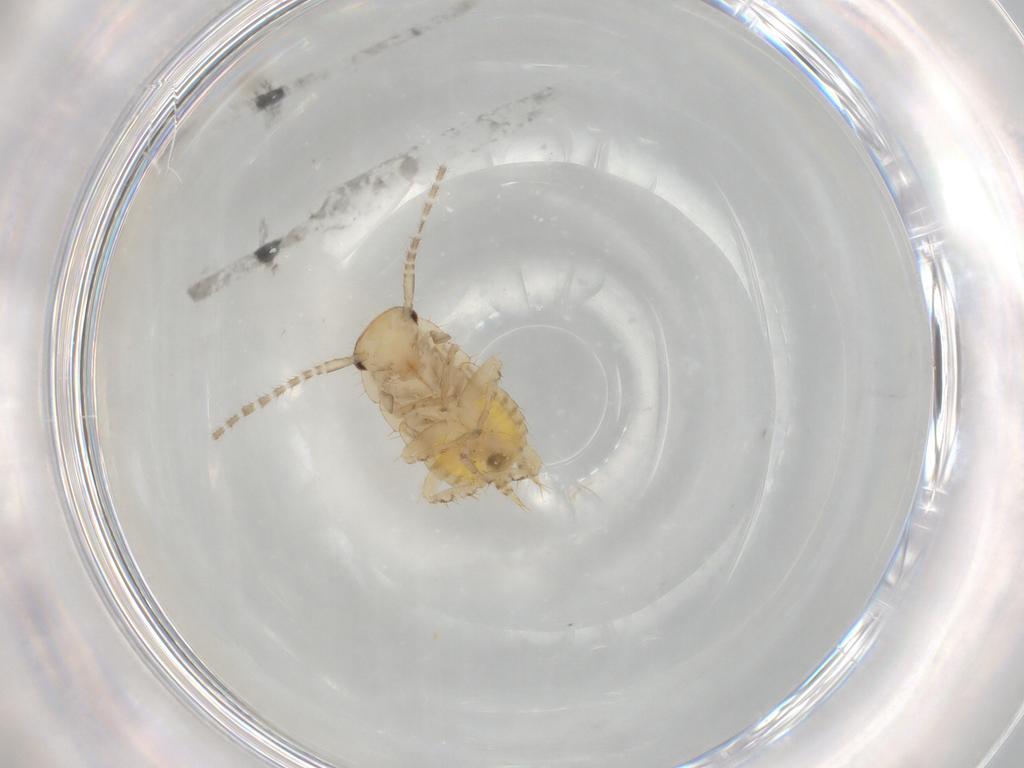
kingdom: Animalia
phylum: Arthropoda
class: Insecta
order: Blattodea
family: Ectobiidae
